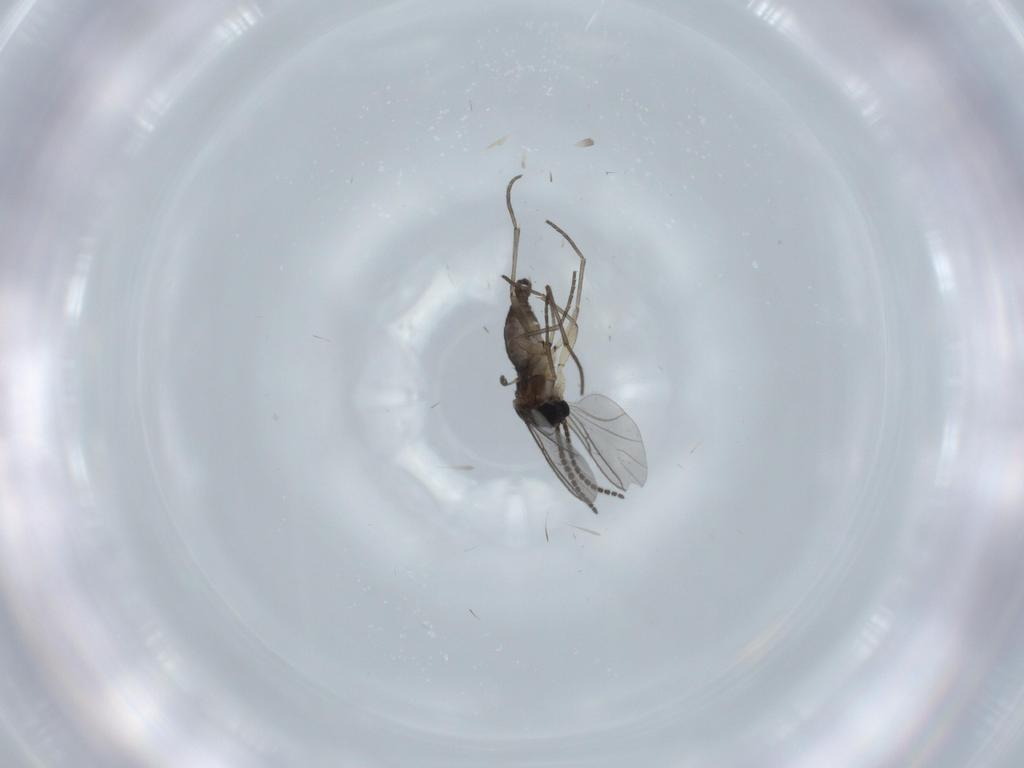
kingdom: Animalia
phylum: Arthropoda
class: Insecta
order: Diptera
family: Sciaridae
